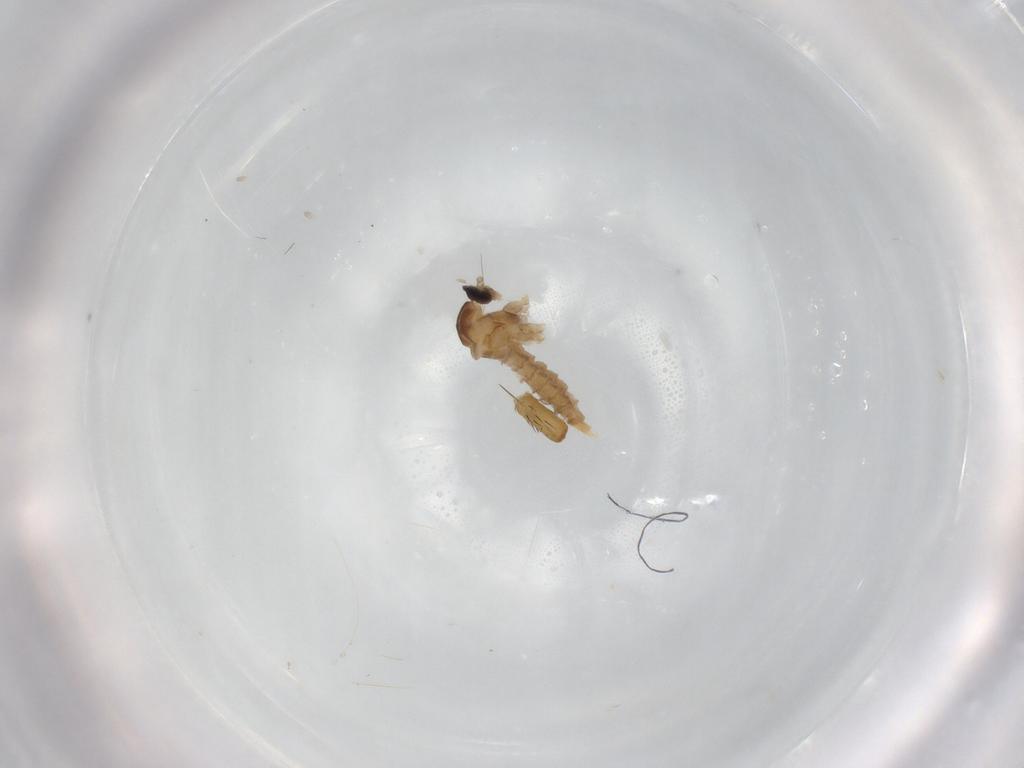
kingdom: Animalia
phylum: Arthropoda
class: Insecta
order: Diptera
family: Cecidomyiidae
